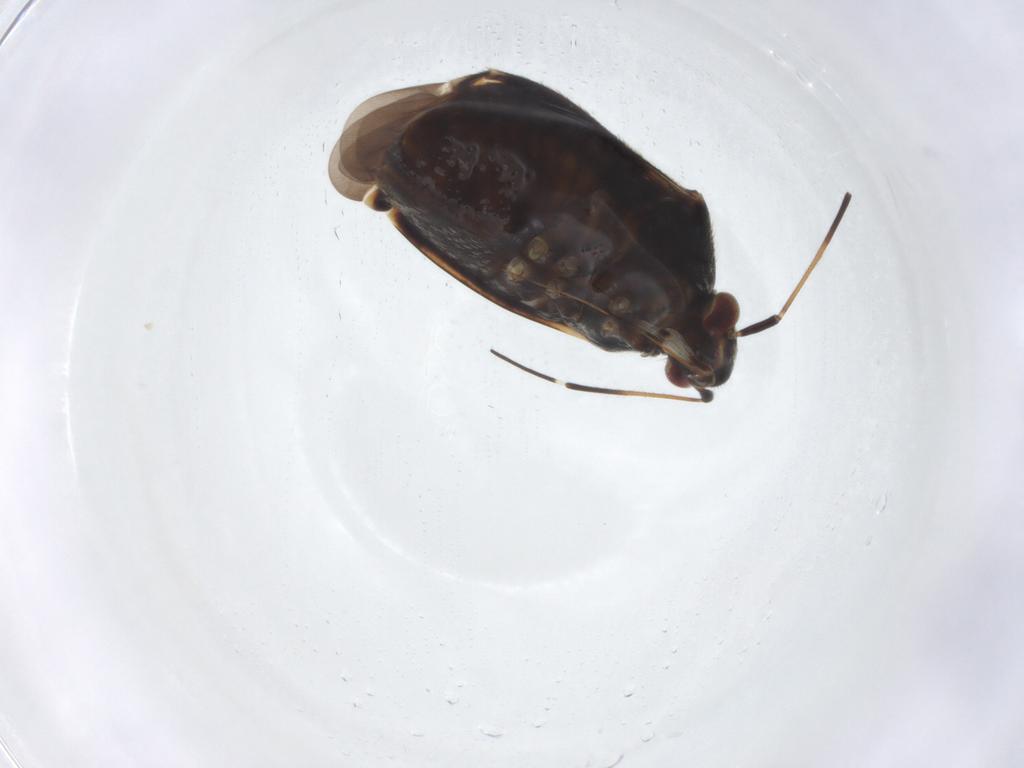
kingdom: Animalia
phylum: Arthropoda
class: Insecta
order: Hemiptera
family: Miridae
